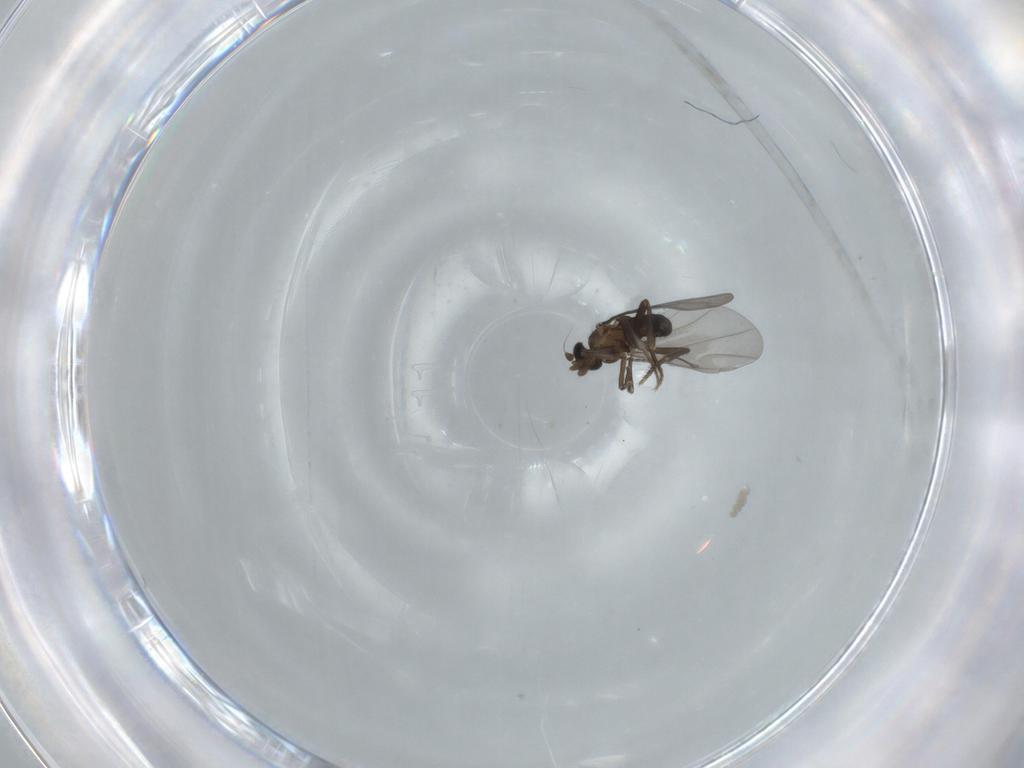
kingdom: Animalia
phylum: Arthropoda
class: Insecta
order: Diptera
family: Phoridae
